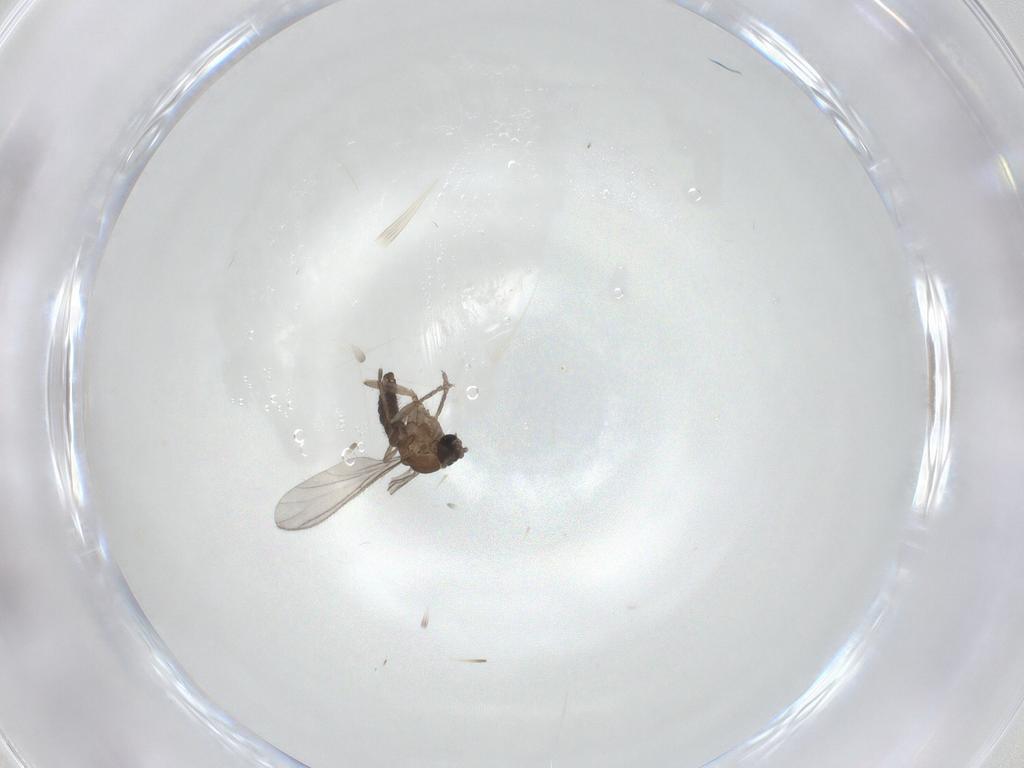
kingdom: Animalia
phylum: Arthropoda
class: Insecta
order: Diptera
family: Sciaridae
